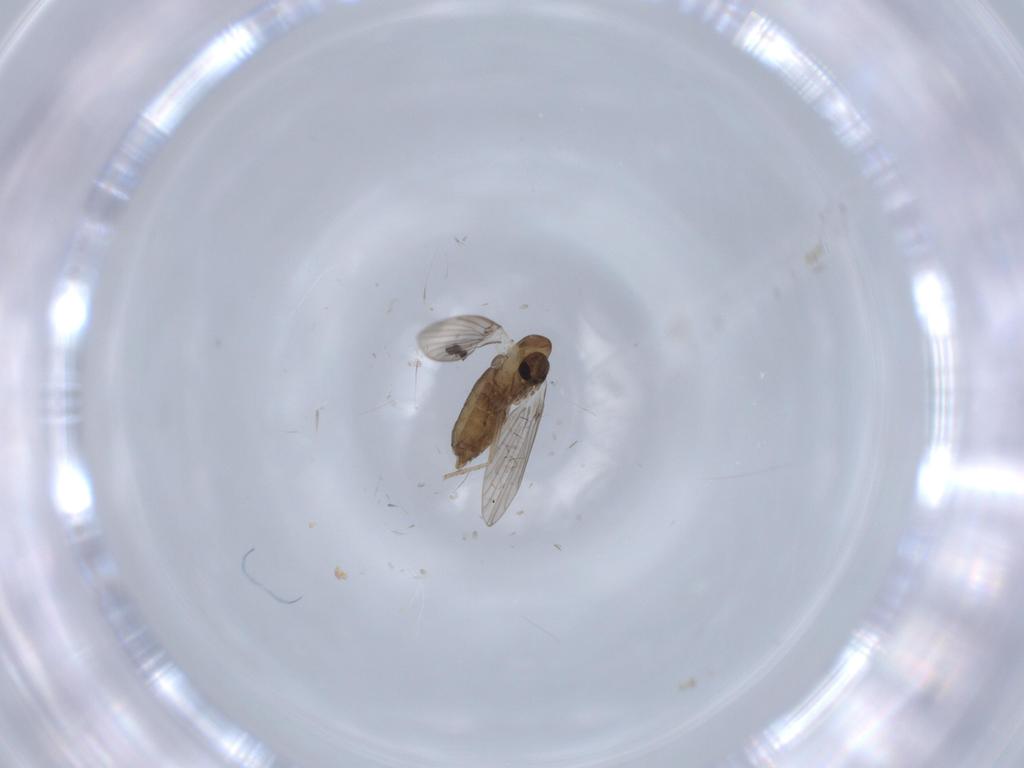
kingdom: Animalia
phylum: Arthropoda
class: Insecta
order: Diptera
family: Cecidomyiidae
